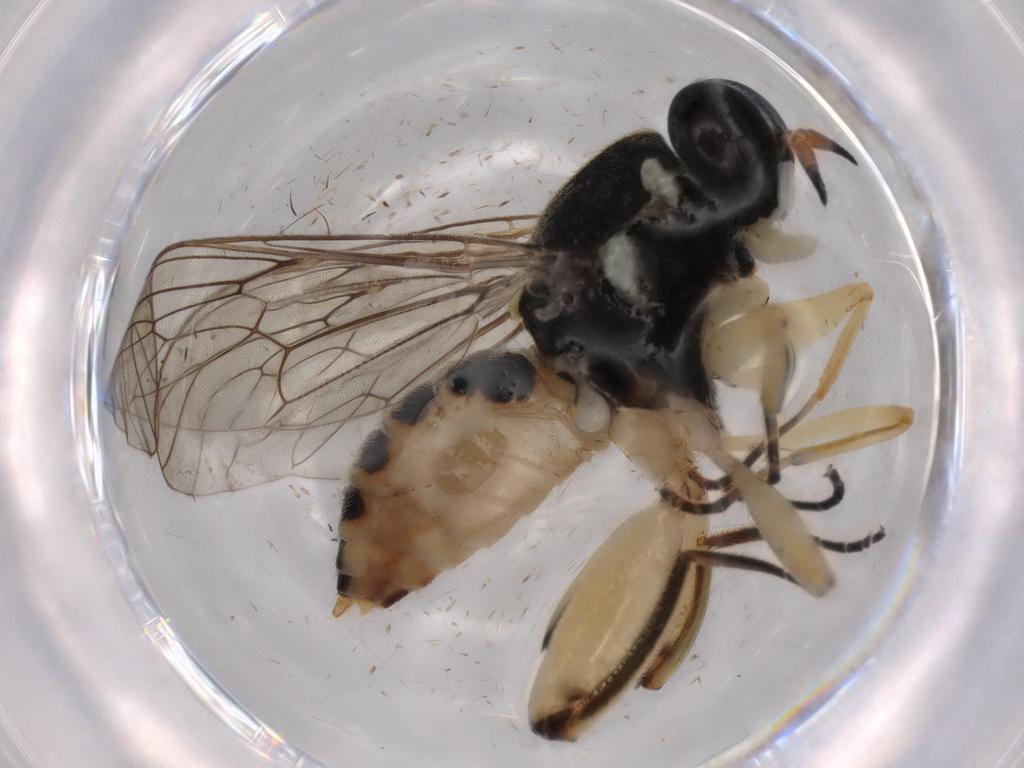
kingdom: Animalia
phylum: Arthropoda
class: Insecta
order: Diptera
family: Cecidomyiidae
